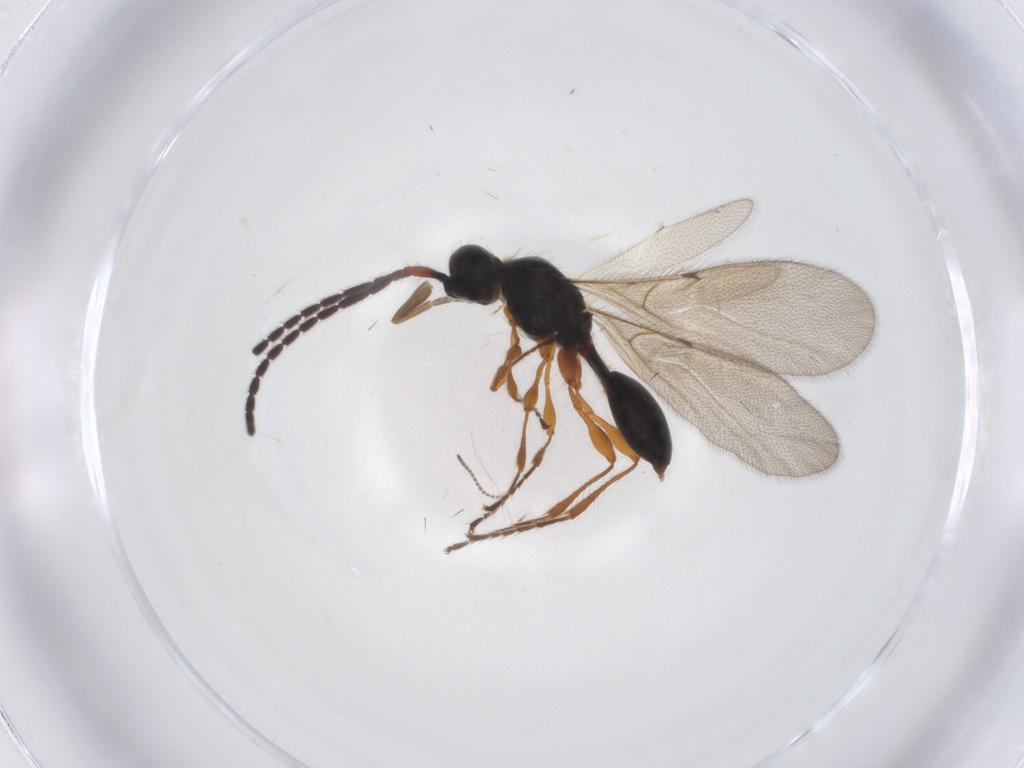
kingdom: Animalia
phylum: Arthropoda
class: Insecta
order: Hymenoptera
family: Diapriidae
